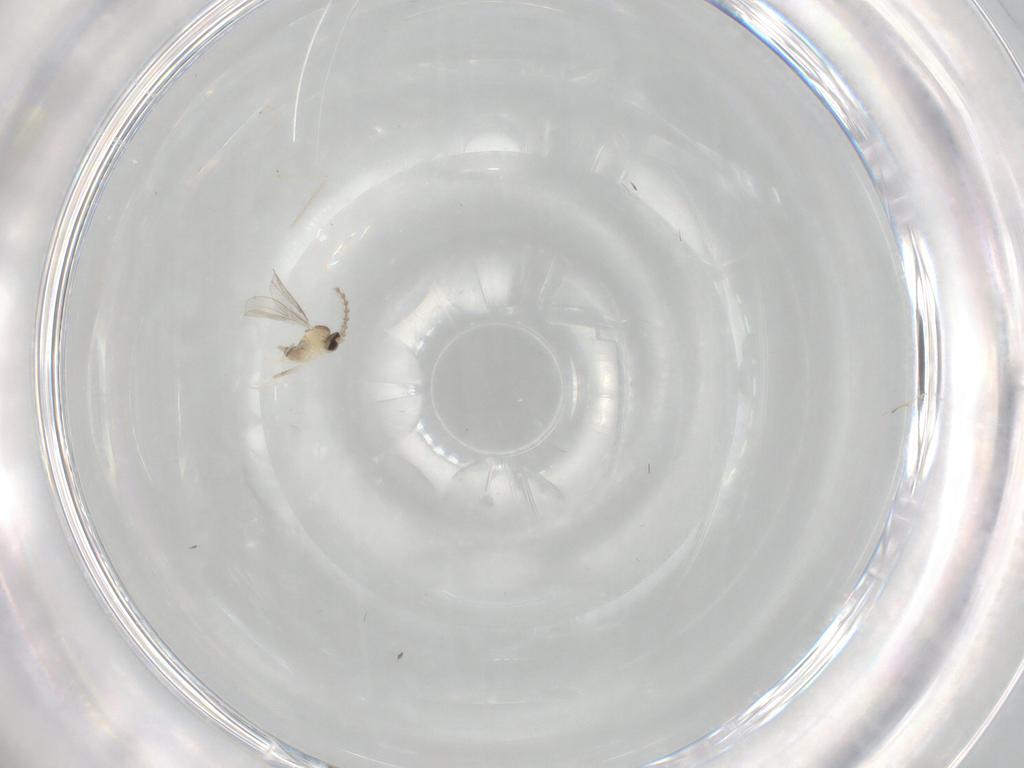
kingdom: Animalia
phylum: Arthropoda
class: Insecta
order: Diptera
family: Cecidomyiidae
